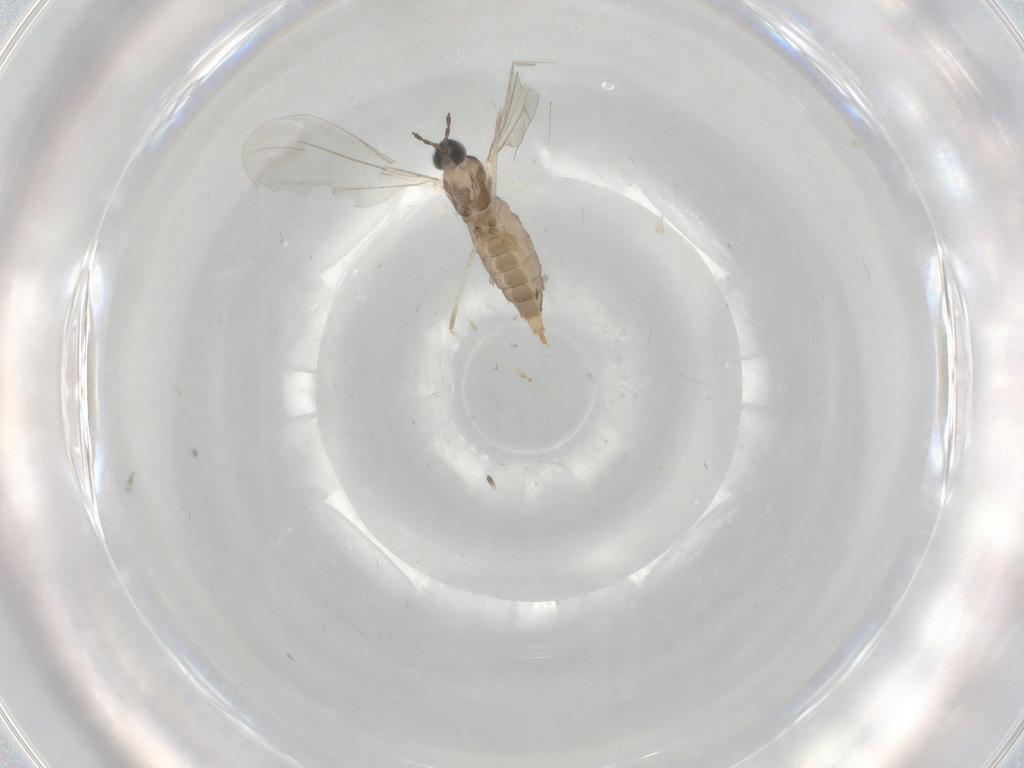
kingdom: Animalia
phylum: Arthropoda
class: Insecta
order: Diptera
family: Cecidomyiidae
